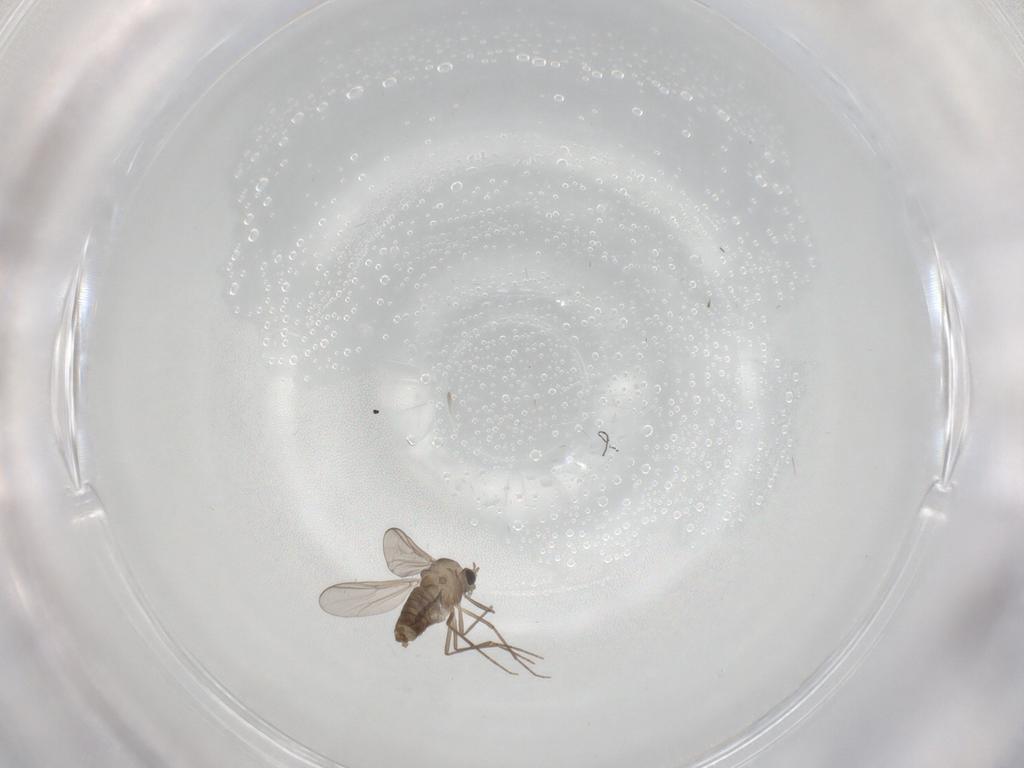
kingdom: Animalia
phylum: Arthropoda
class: Insecta
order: Diptera
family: Chironomidae
